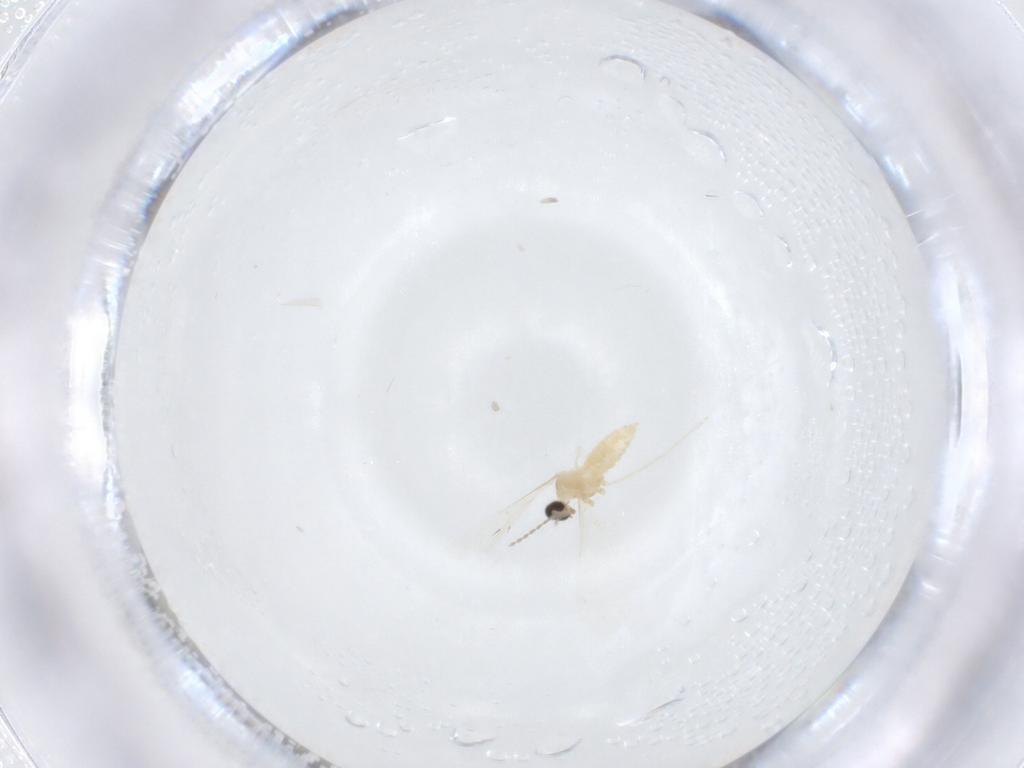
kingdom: Animalia
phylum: Arthropoda
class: Insecta
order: Diptera
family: Cecidomyiidae
